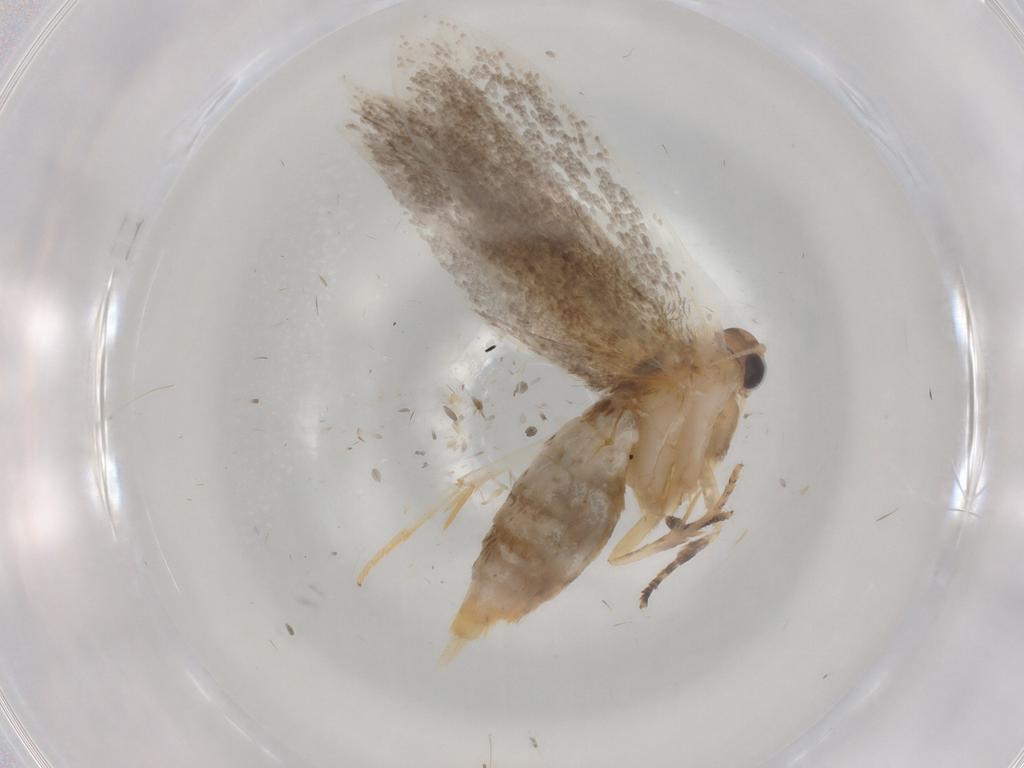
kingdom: Animalia
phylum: Arthropoda
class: Insecta
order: Lepidoptera
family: Oecophoridae
